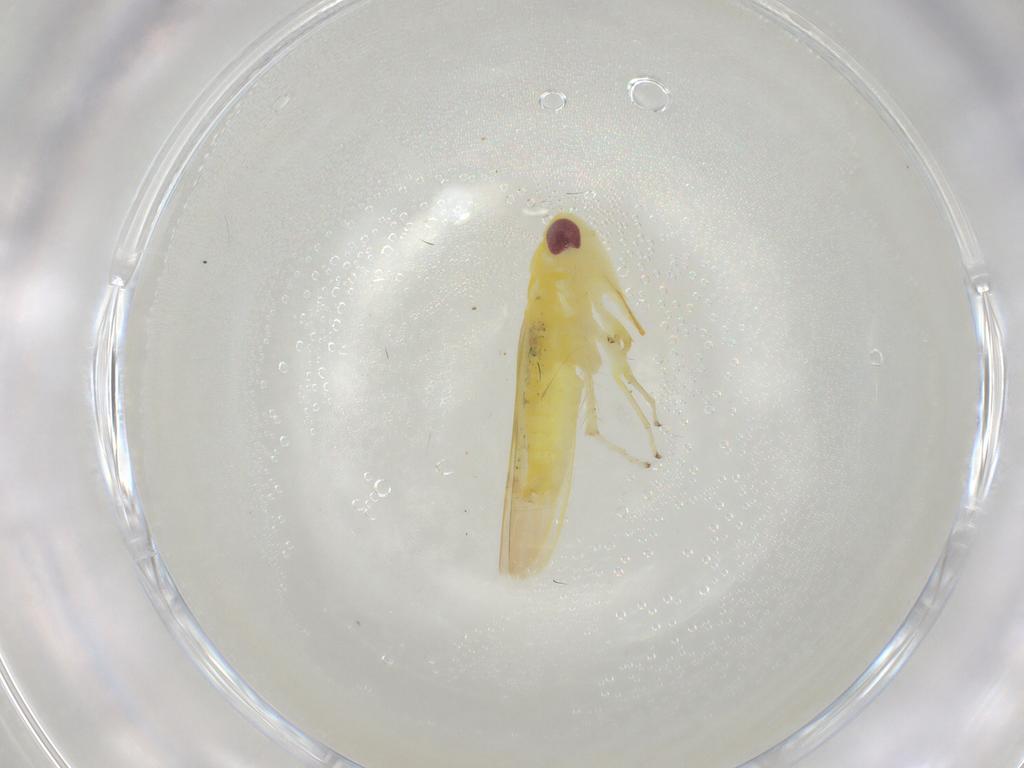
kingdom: Animalia
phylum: Arthropoda
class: Insecta
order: Hemiptera
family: Cicadellidae
